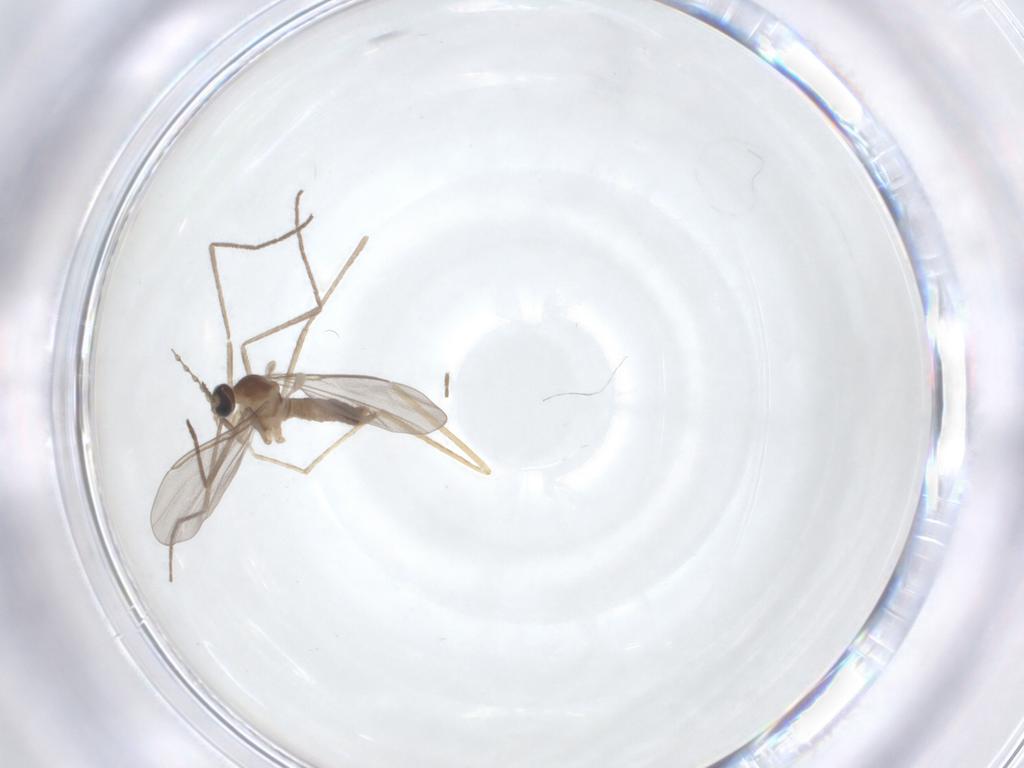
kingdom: Animalia
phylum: Arthropoda
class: Insecta
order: Diptera
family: Cecidomyiidae
